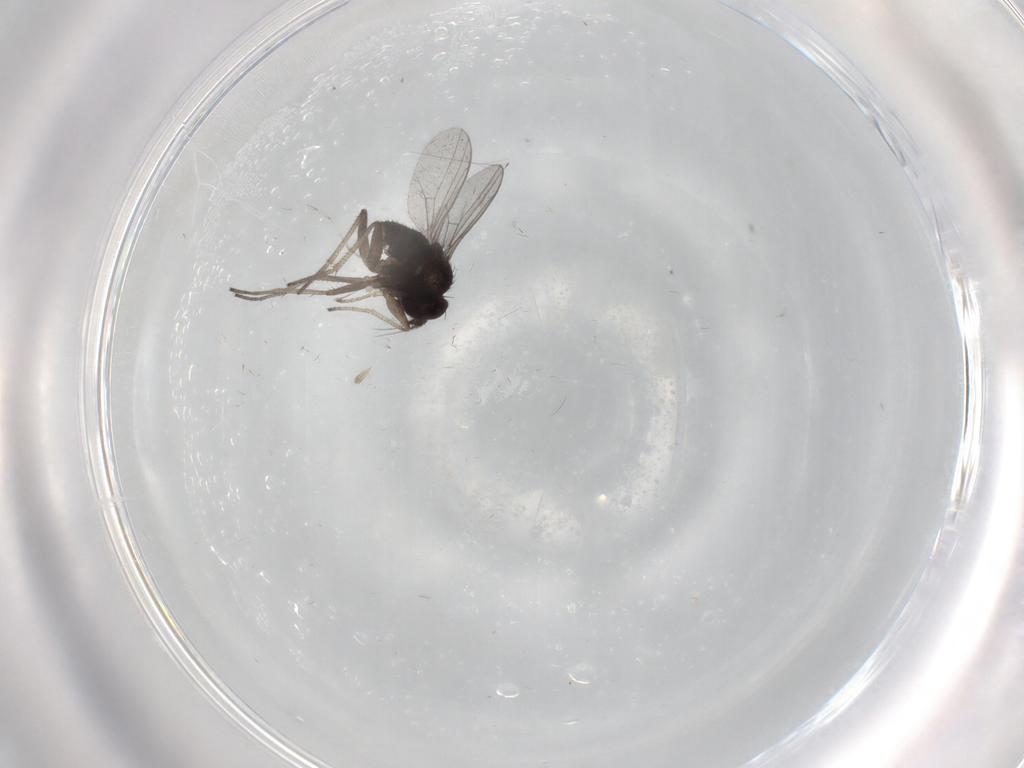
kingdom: Animalia
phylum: Arthropoda
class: Insecta
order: Diptera
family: Dolichopodidae
